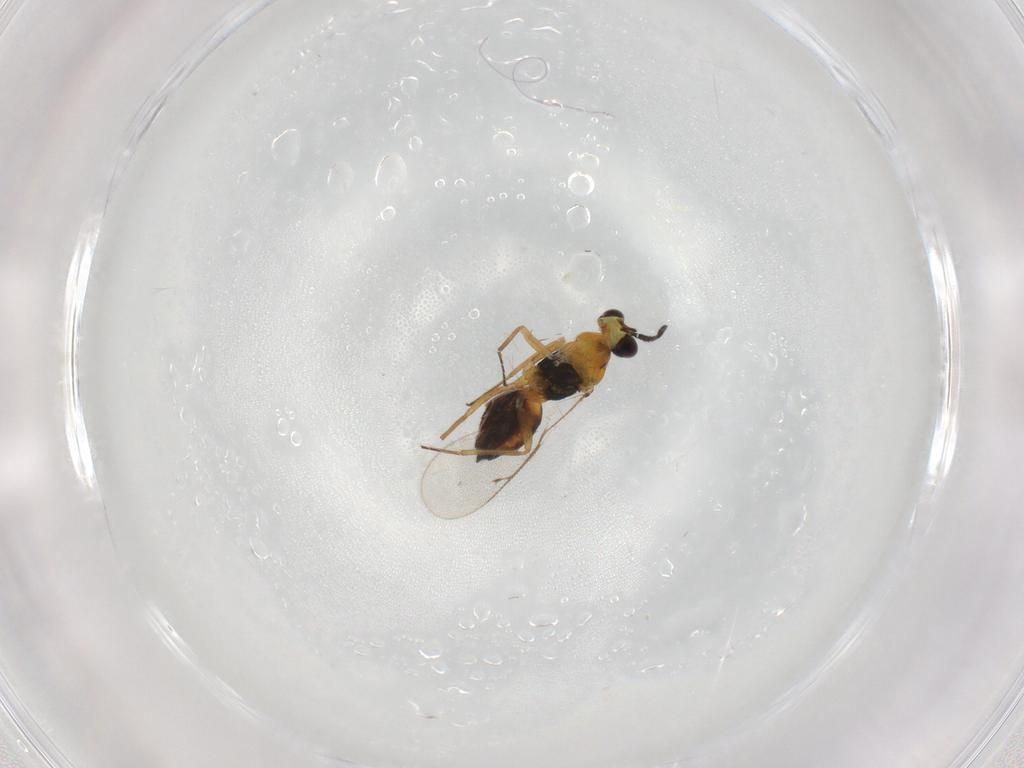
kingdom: Animalia
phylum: Arthropoda
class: Insecta
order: Hymenoptera
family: Eulophidae
